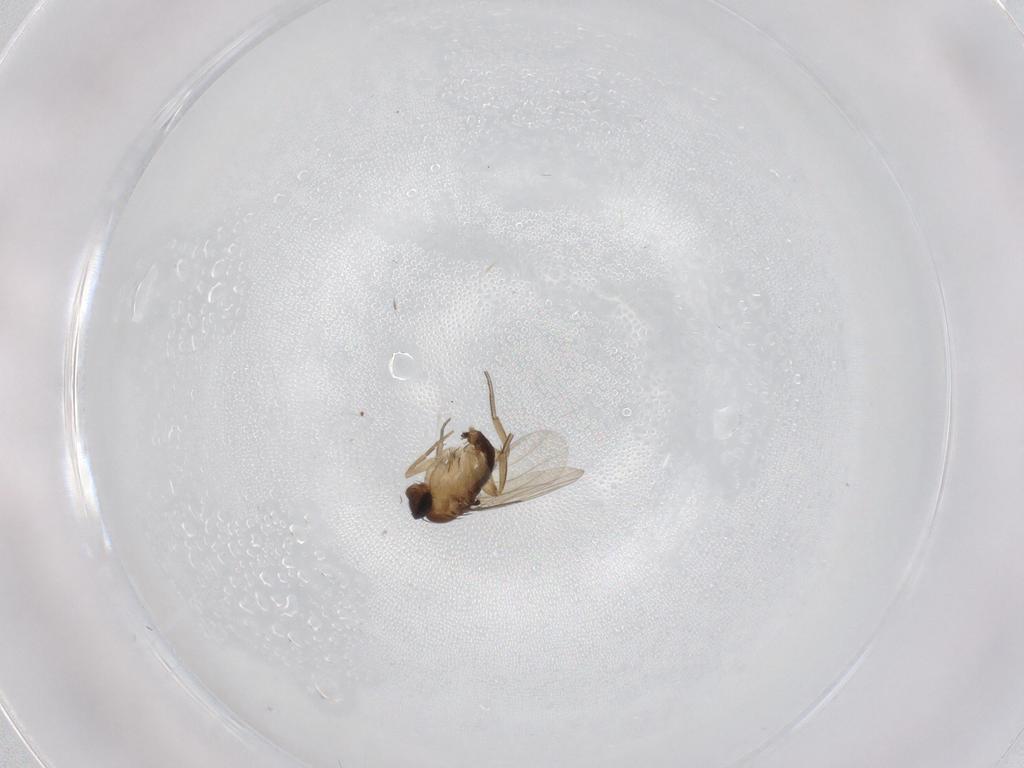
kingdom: Animalia
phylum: Arthropoda
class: Insecta
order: Diptera
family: Phoridae
